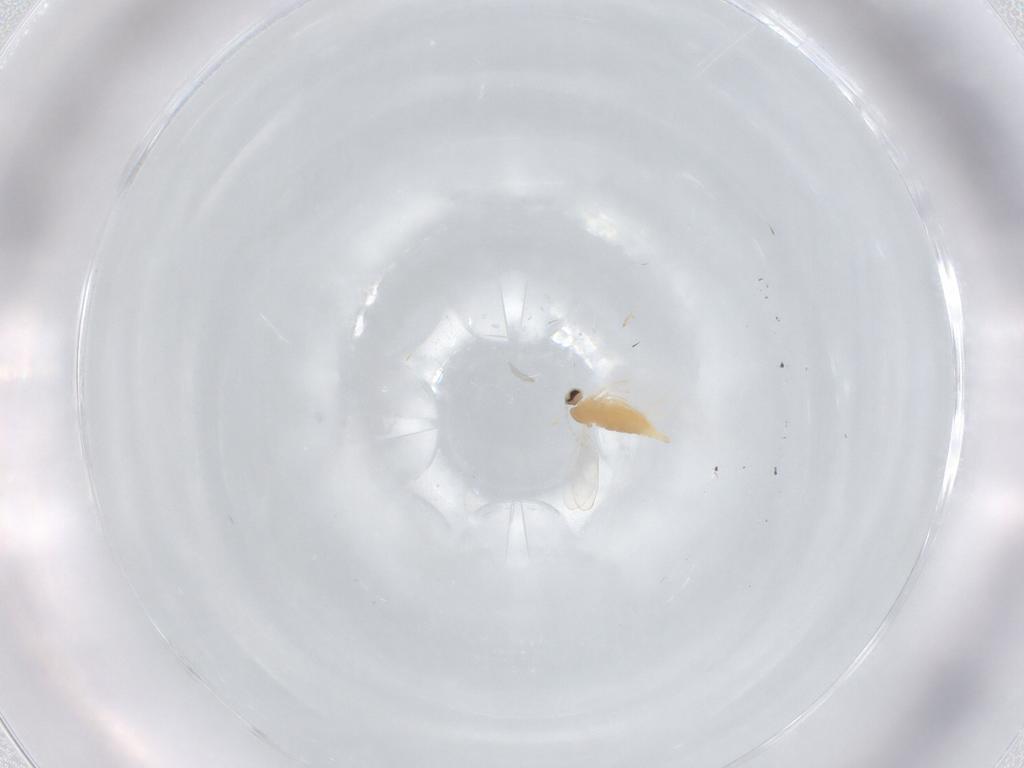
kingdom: Animalia
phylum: Arthropoda
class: Insecta
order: Diptera
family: Cecidomyiidae
